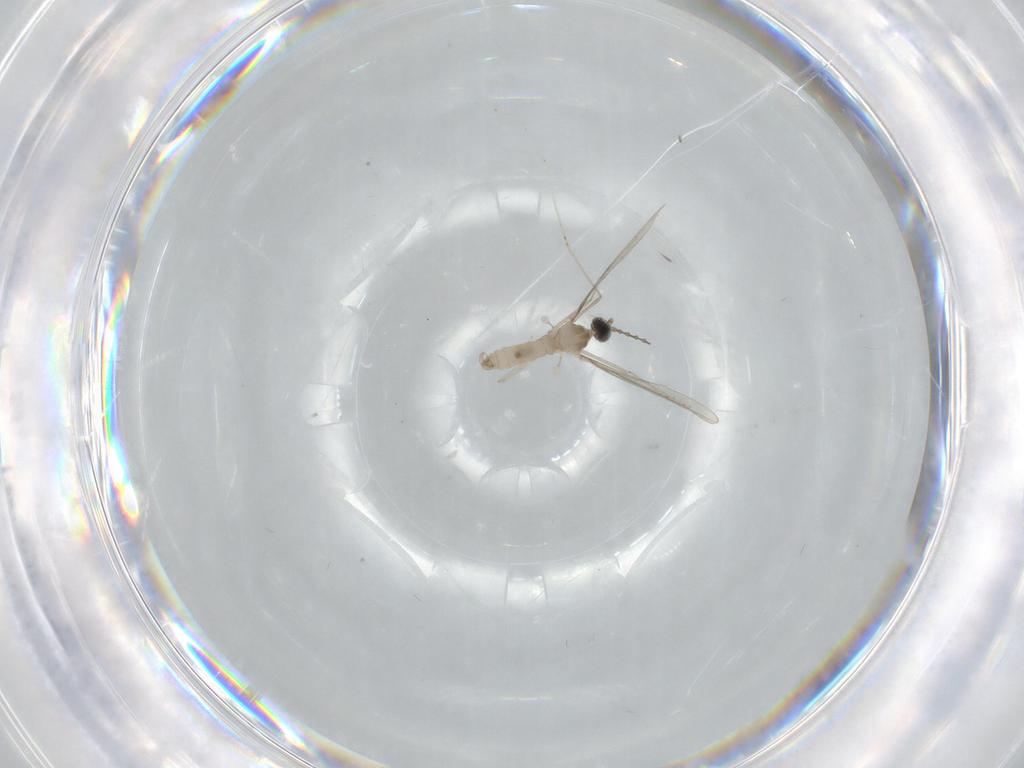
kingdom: Animalia
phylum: Arthropoda
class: Insecta
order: Diptera
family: Cecidomyiidae
